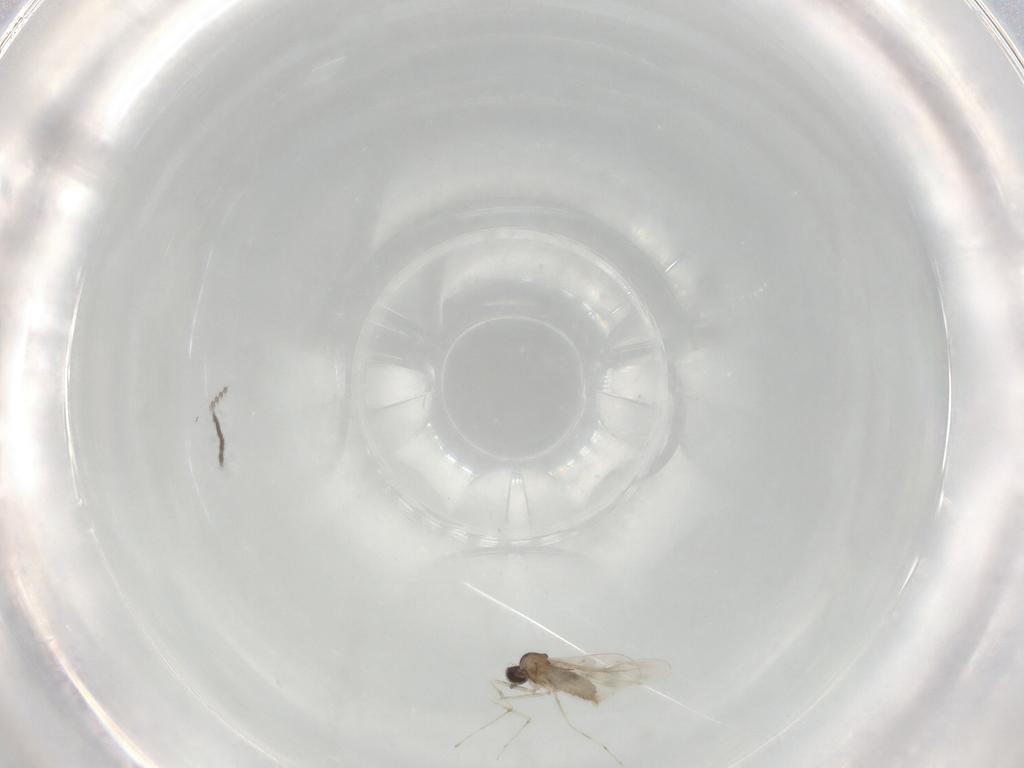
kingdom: Animalia
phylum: Arthropoda
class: Insecta
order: Diptera
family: Cecidomyiidae
